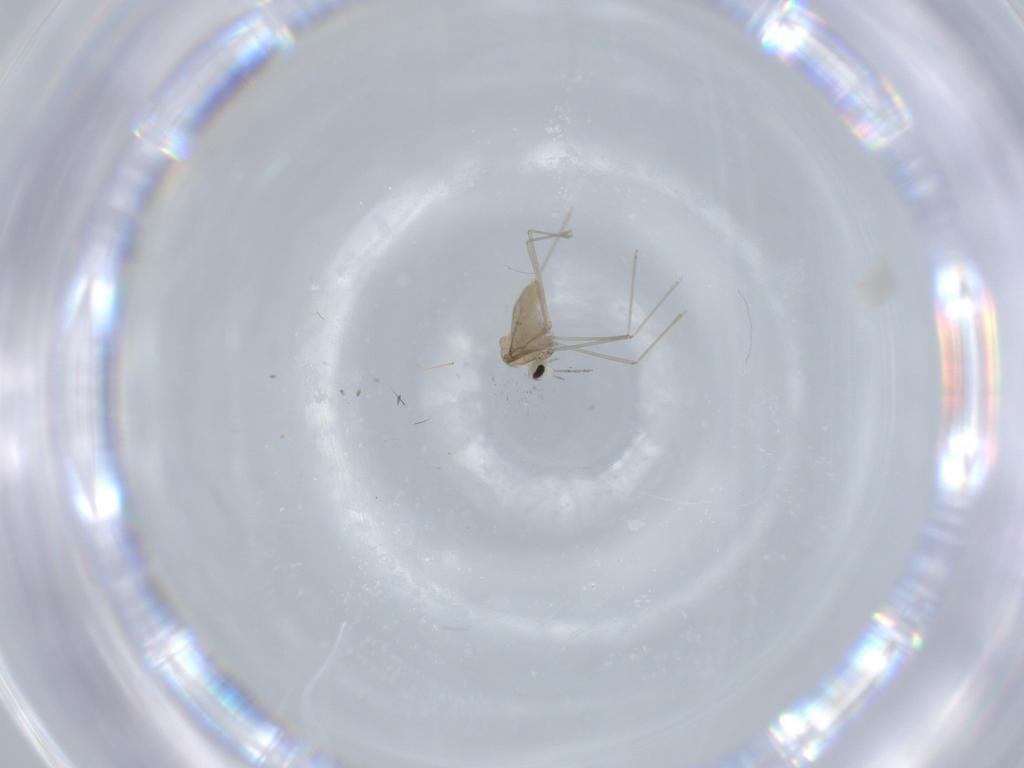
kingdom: Animalia
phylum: Arthropoda
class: Insecta
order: Diptera
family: Cecidomyiidae
